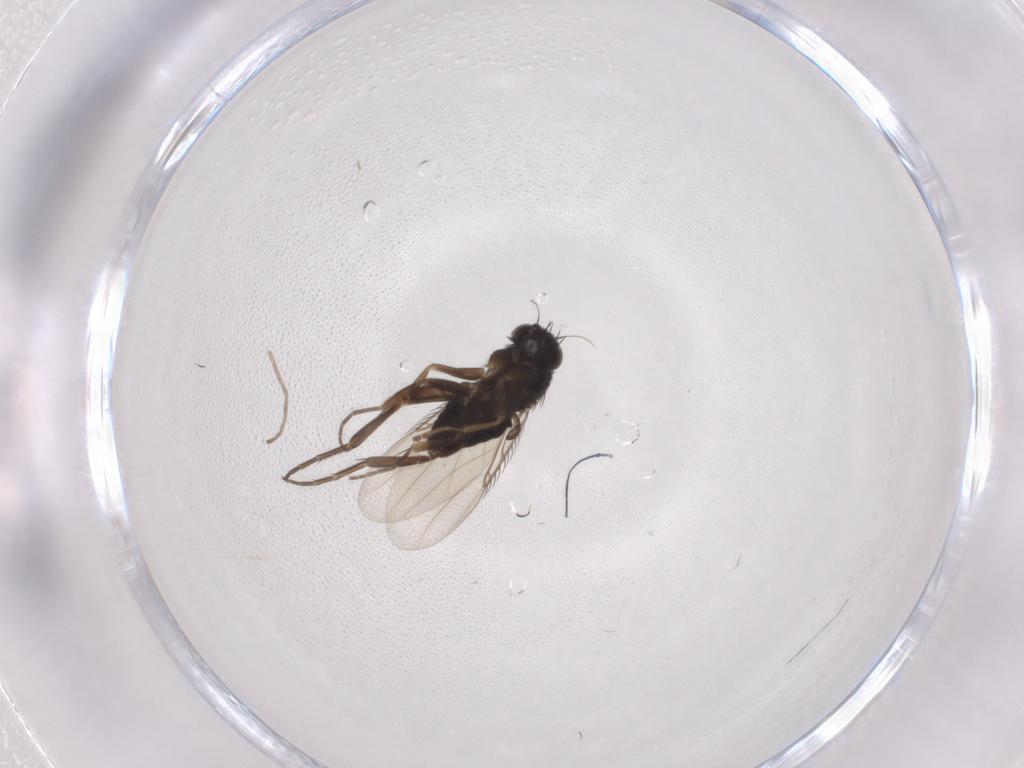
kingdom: Animalia
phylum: Arthropoda
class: Insecta
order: Diptera
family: Phoridae
